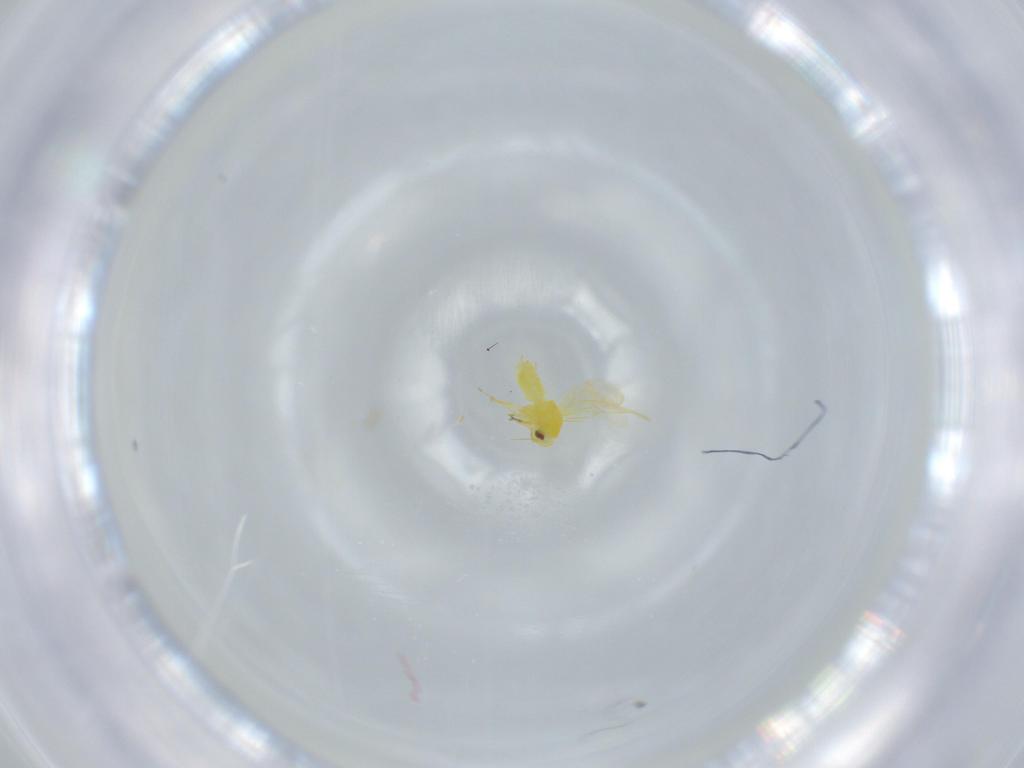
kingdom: Animalia
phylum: Arthropoda
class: Insecta
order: Hemiptera
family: Aleyrodidae
